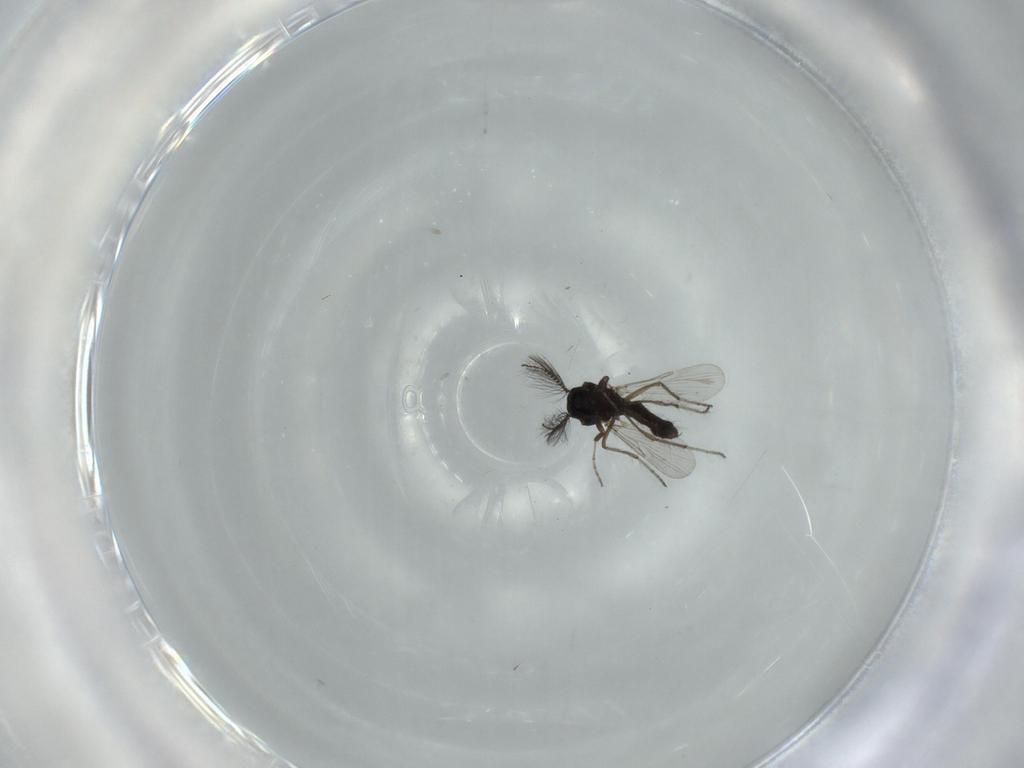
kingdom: Animalia
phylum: Arthropoda
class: Insecta
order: Diptera
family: Ceratopogonidae
